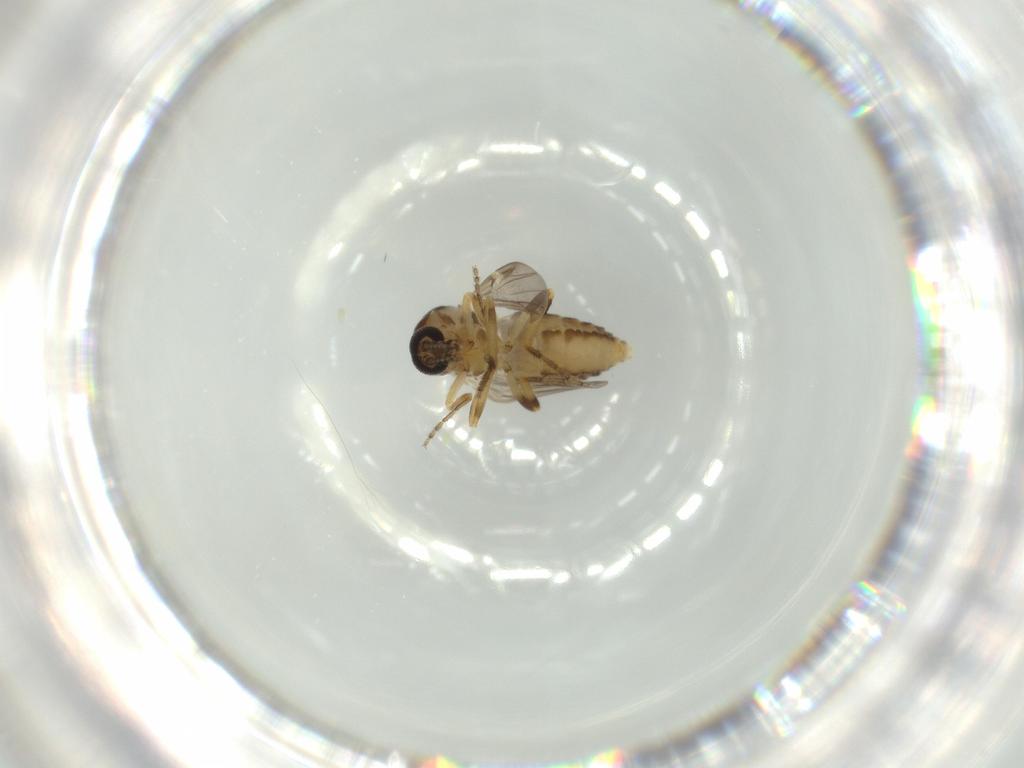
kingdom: Animalia
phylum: Arthropoda
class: Insecta
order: Diptera
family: Ceratopogonidae
